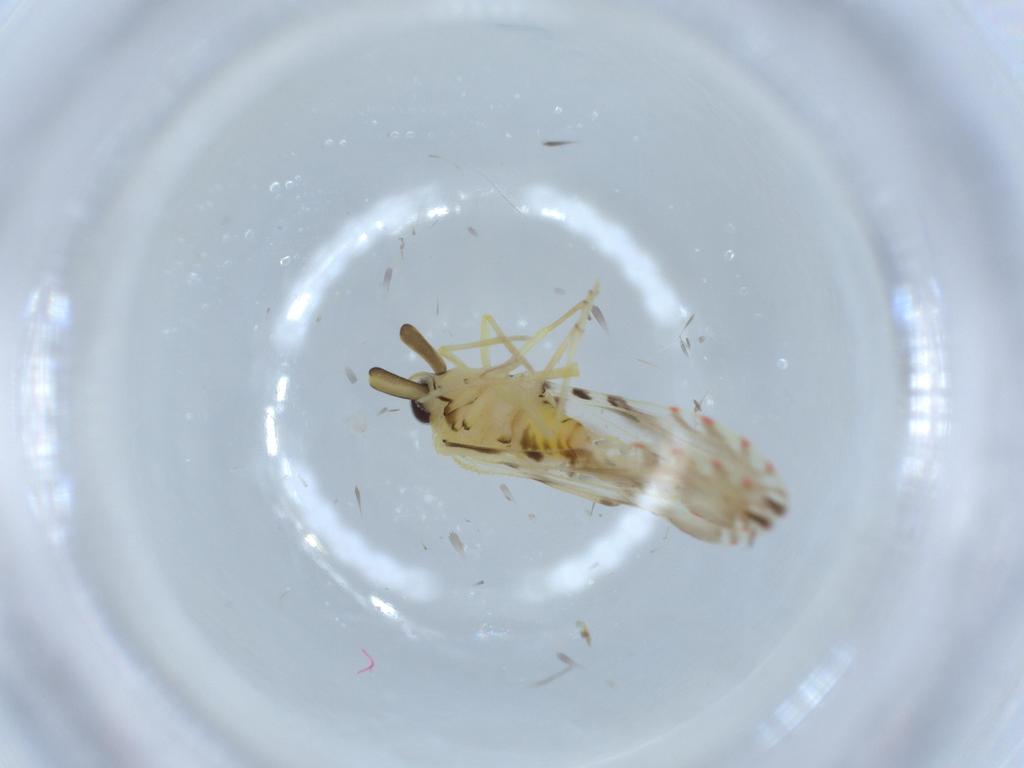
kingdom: Animalia
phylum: Arthropoda
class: Insecta
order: Hemiptera
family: Derbidae
